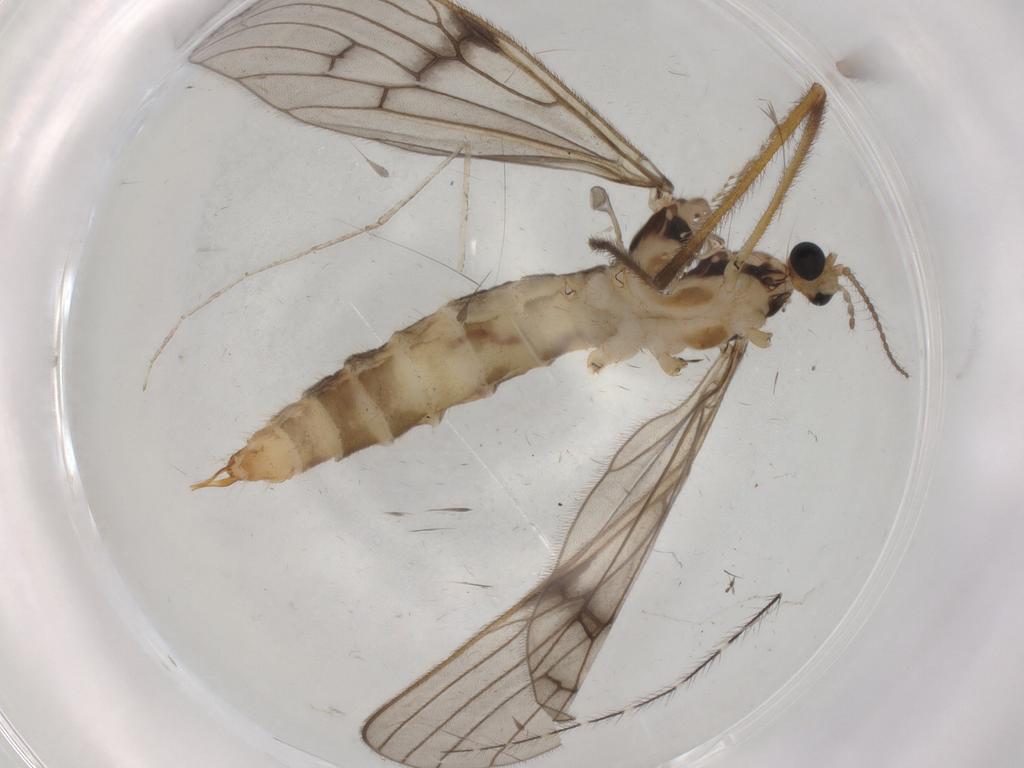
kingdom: Animalia
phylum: Arthropoda
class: Insecta
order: Diptera
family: Limoniidae
